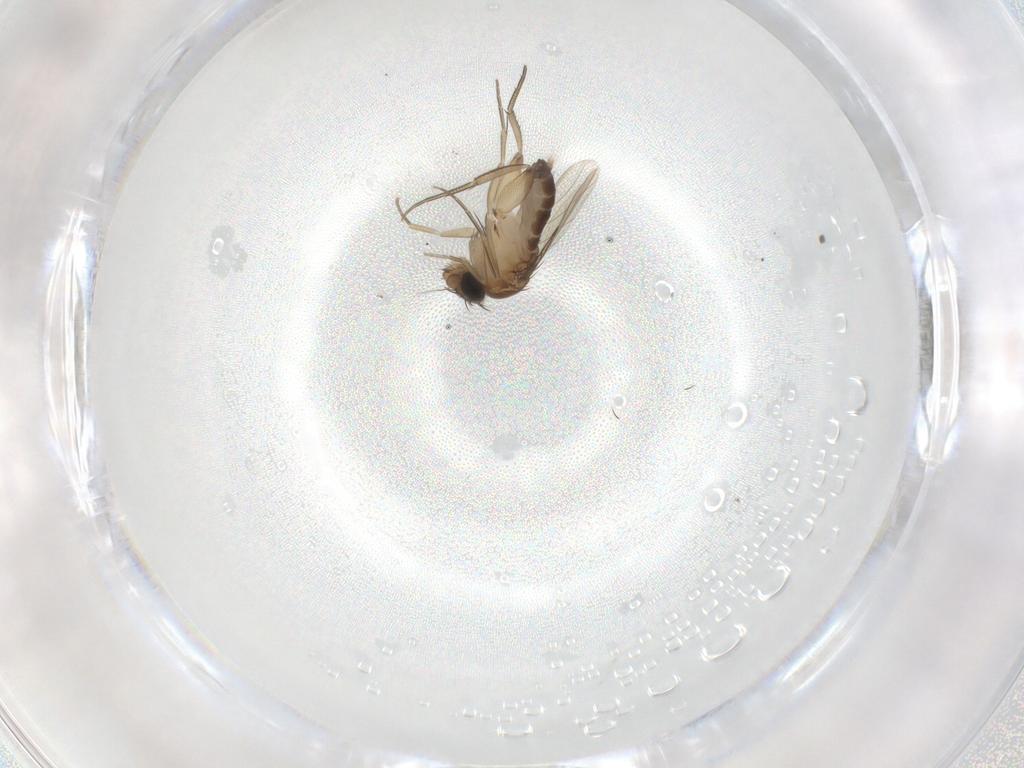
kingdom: Animalia
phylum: Arthropoda
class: Insecta
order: Diptera
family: Phoridae
